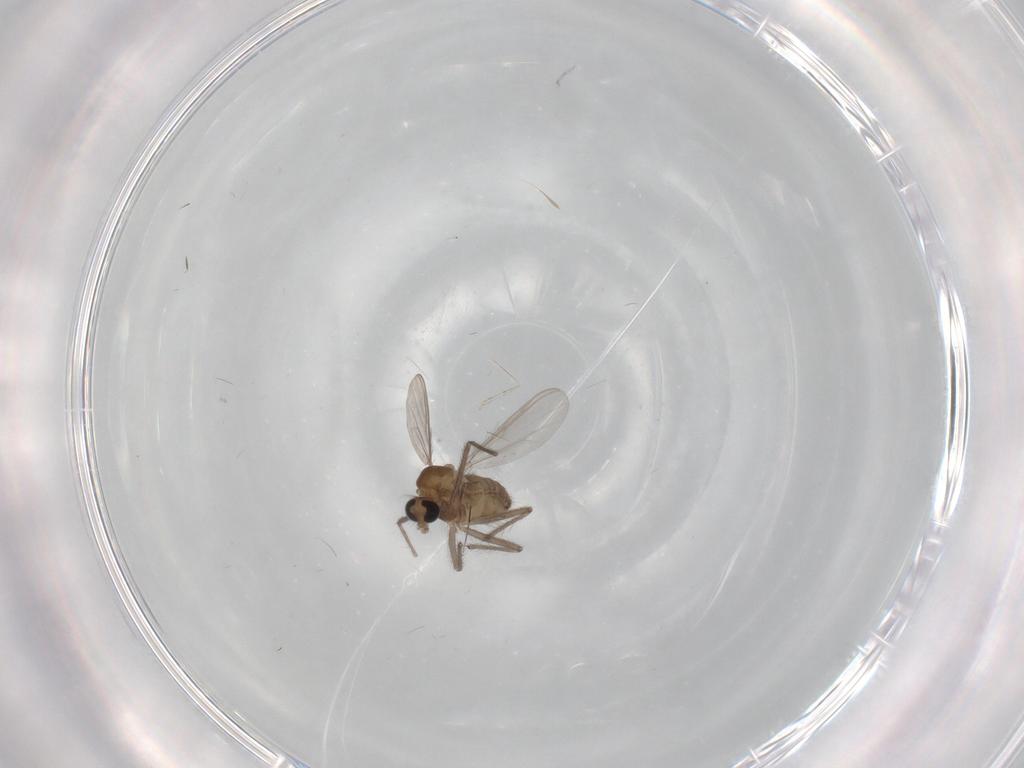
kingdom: Animalia
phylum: Arthropoda
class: Insecta
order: Diptera
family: Chironomidae
